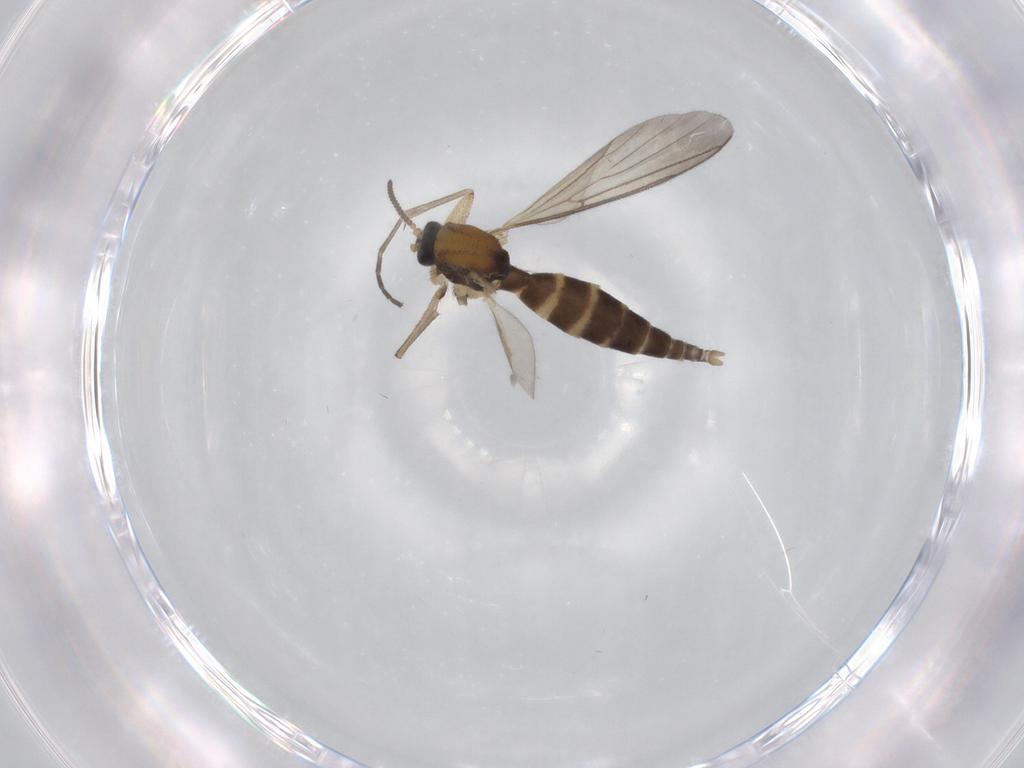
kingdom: Animalia
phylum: Arthropoda
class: Insecta
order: Diptera
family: Mycetophilidae
